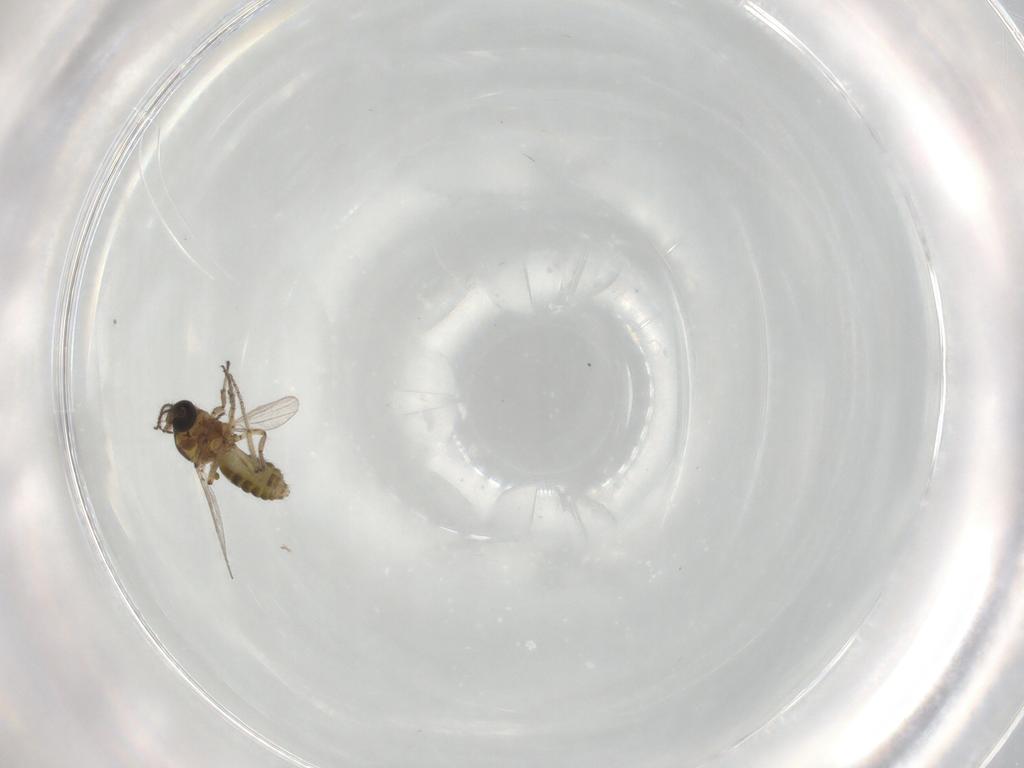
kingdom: Animalia
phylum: Arthropoda
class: Insecta
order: Diptera
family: Ceratopogonidae
